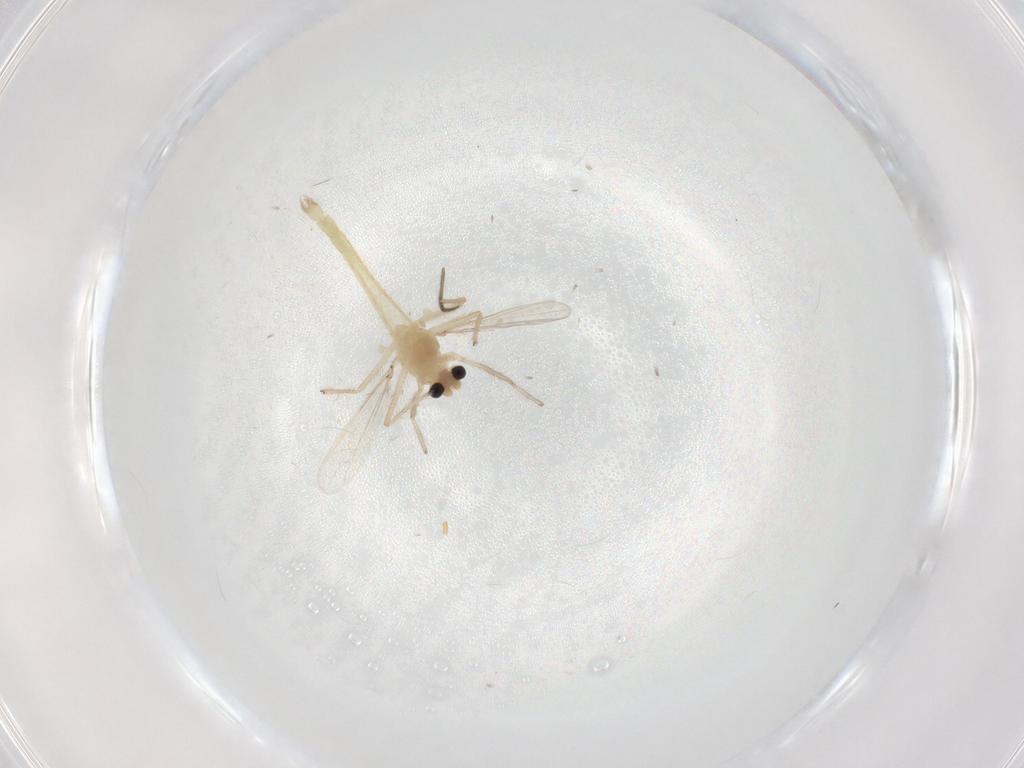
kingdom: Animalia
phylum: Arthropoda
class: Insecta
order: Diptera
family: Chironomidae
